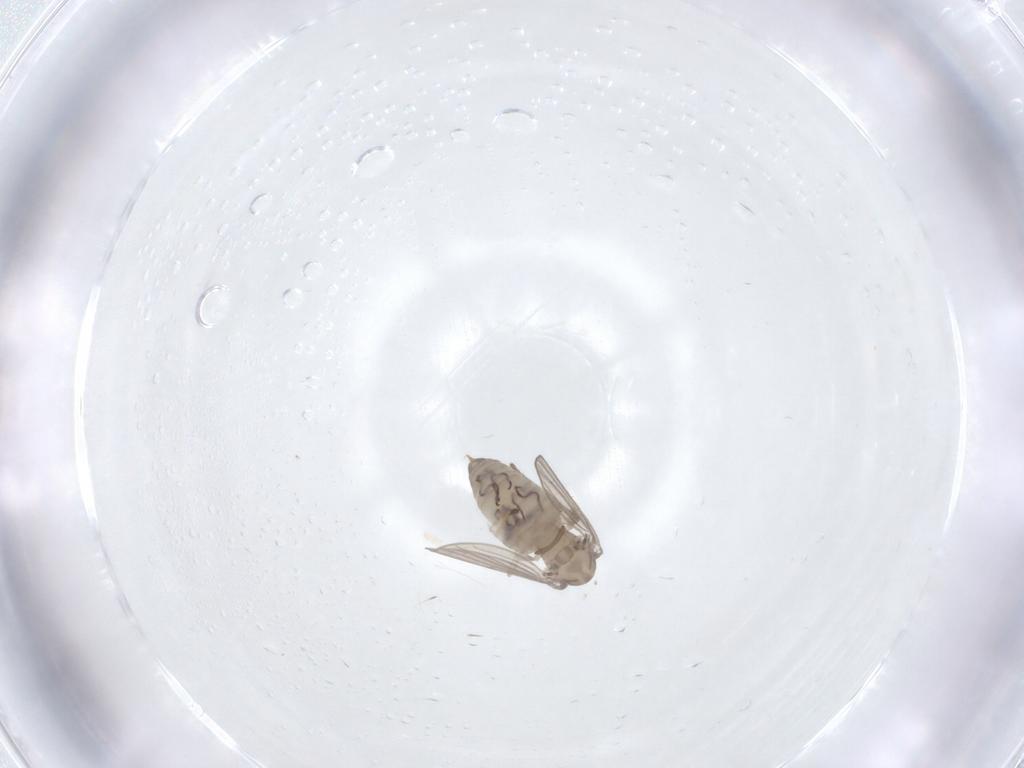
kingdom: Animalia
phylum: Arthropoda
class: Insecta
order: Diptera
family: Psychodidae
